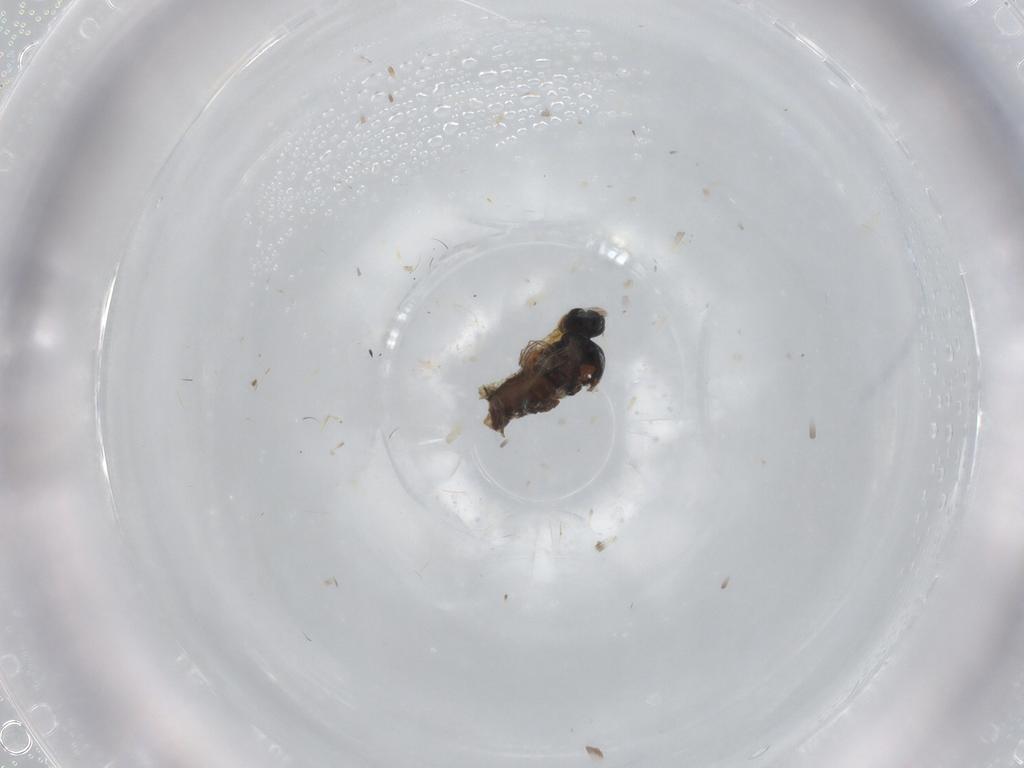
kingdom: Animalia
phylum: Arthropoda
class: Insecta
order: Diptera
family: Hybotidae
